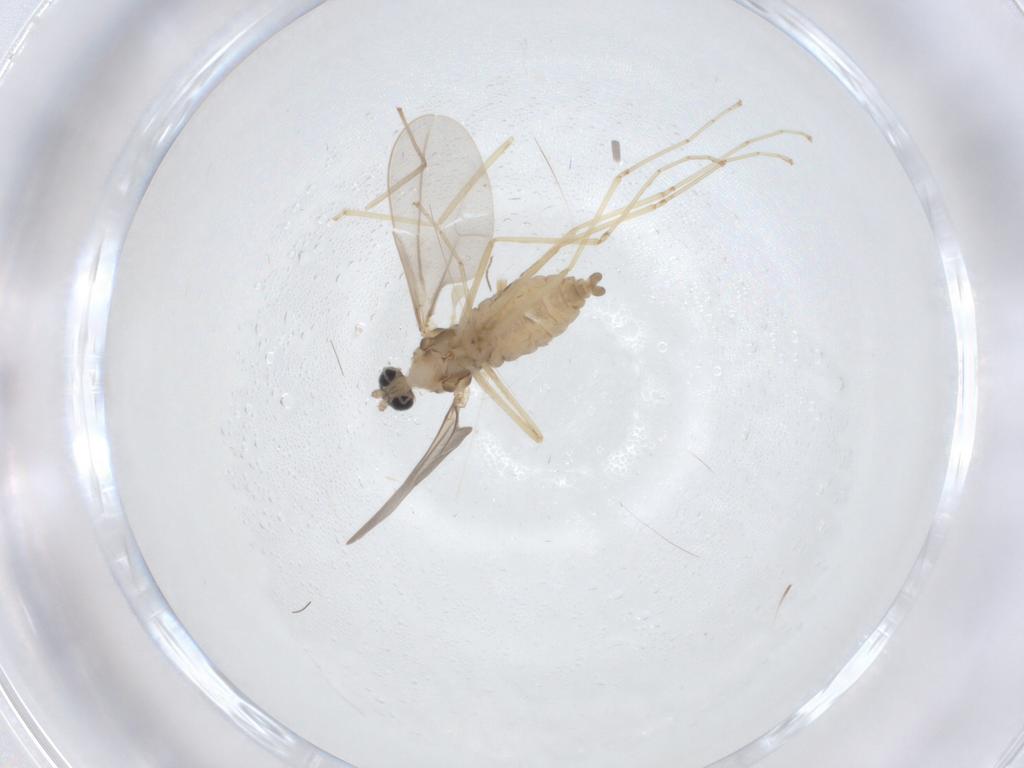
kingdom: Animalia
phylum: Arthropoda
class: Insecta
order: Diptera
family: Cecidomyiidae
